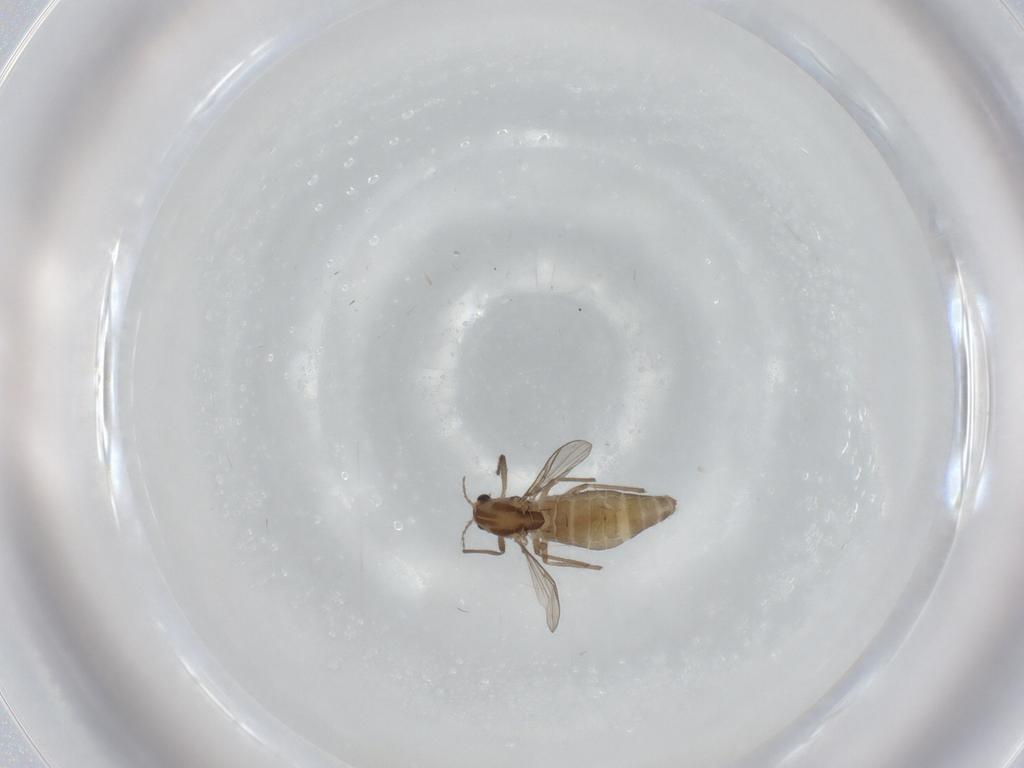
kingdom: Animalia
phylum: Arthropoda
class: Insecta
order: Diptera
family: Chironomidae
